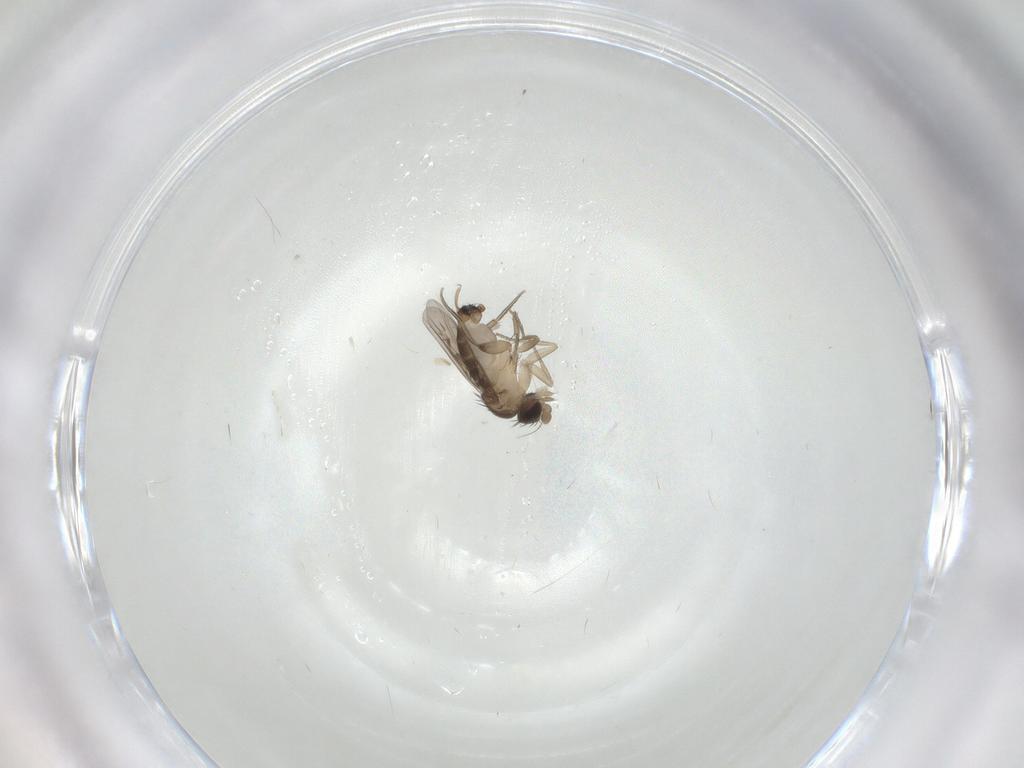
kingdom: Animalia
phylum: Arthropoda
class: Insecta
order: Diptera
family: Phoridae
